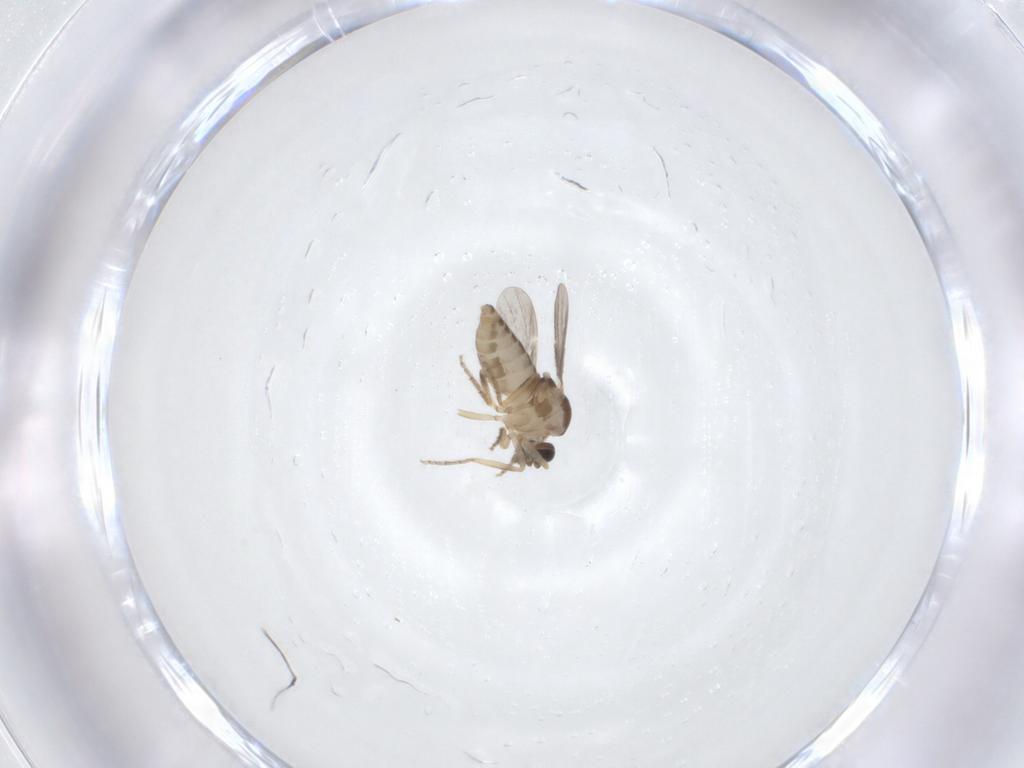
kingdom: Animalia
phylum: Arthropoda
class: Insecta
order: Diptera
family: Ceratopogonidae
